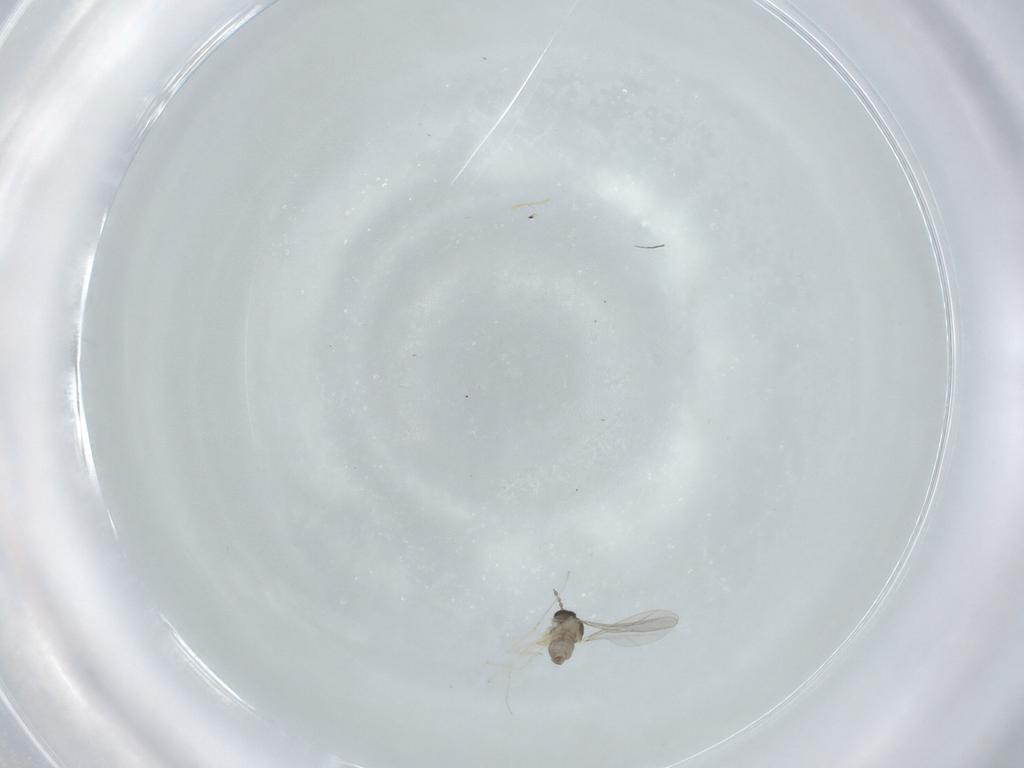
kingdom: Animalia
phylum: Arthropoda
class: Insecta
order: Diptera
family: Cecidomyiidae
